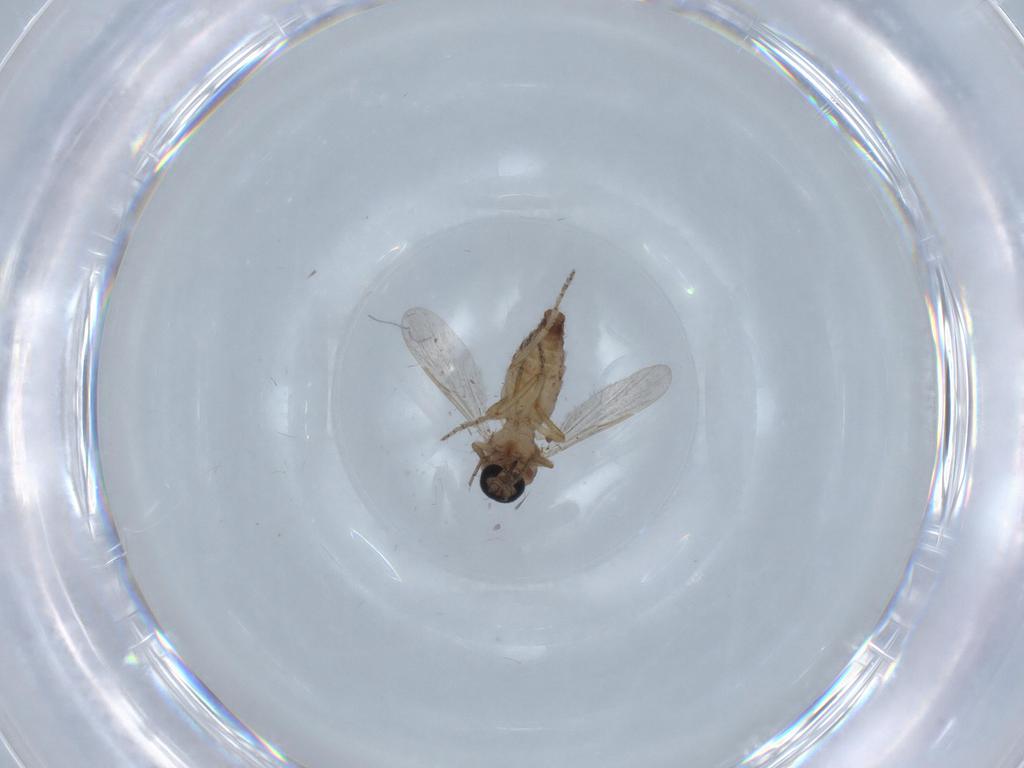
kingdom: Animalia
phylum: Arthropoda
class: Insecta
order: Diptera
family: Ceratopogonidae
